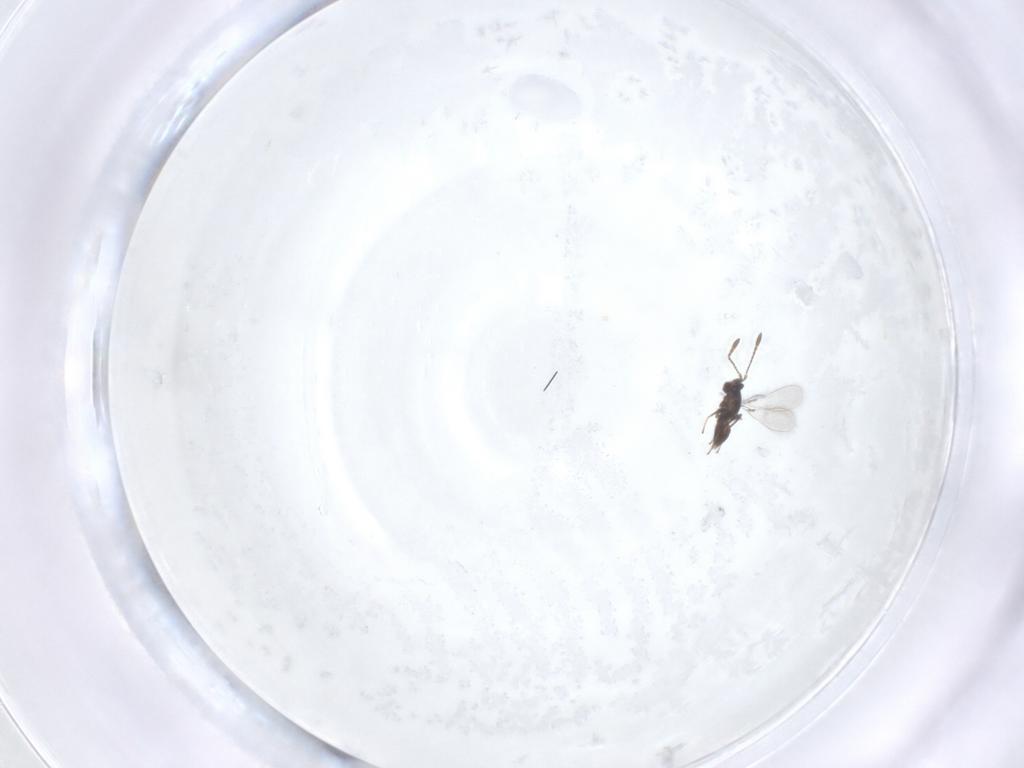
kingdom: Animalia
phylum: Arthropoda
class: Insecta
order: Hymenoptera
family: Mymaridae
